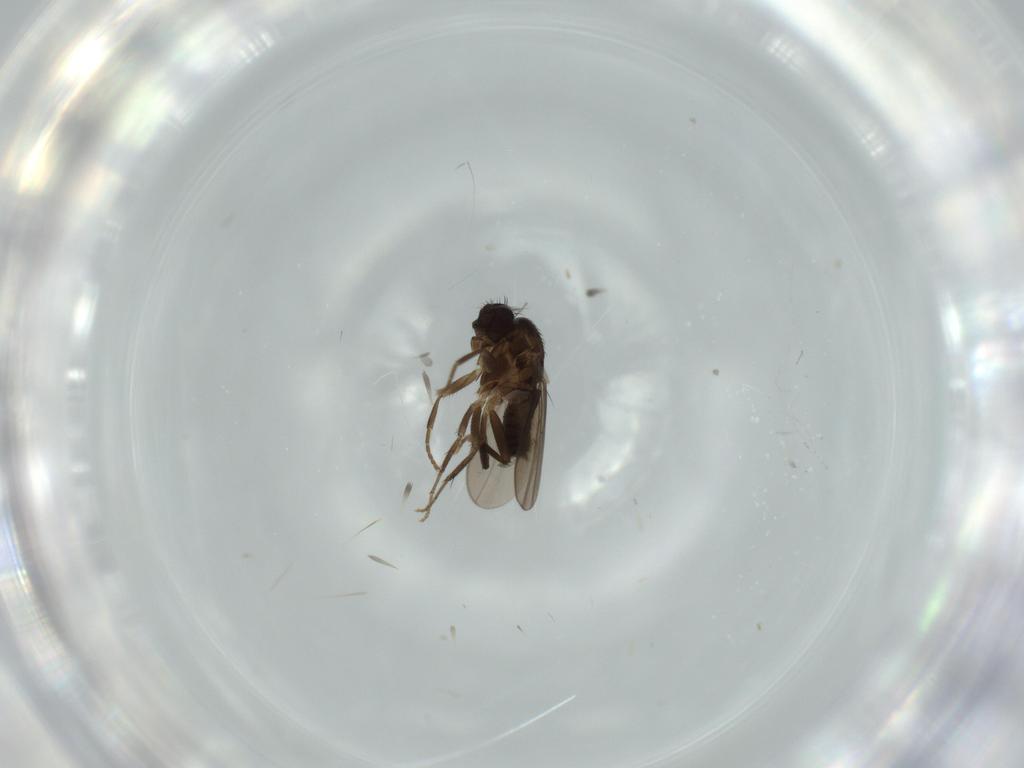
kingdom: Animalia
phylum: Arthropoda
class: Insecta
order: Diptera
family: Sphaeroceridae
